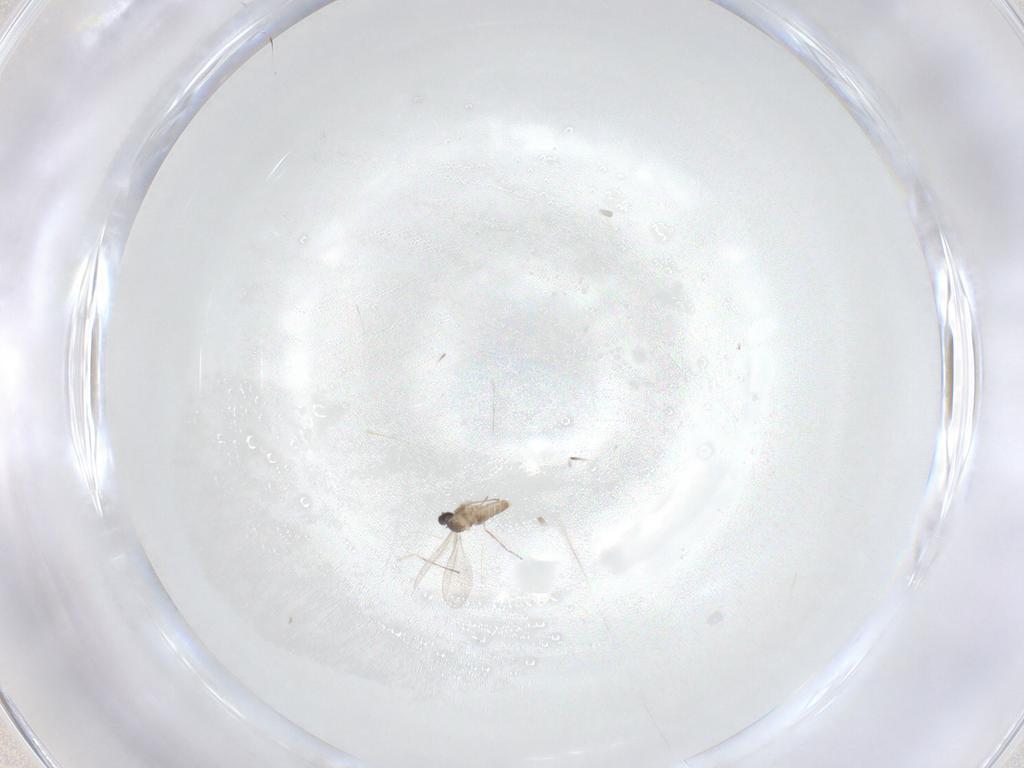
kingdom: Animalia
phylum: Arthropoda
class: Insecta
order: Diptera
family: Cecidomyiidae
